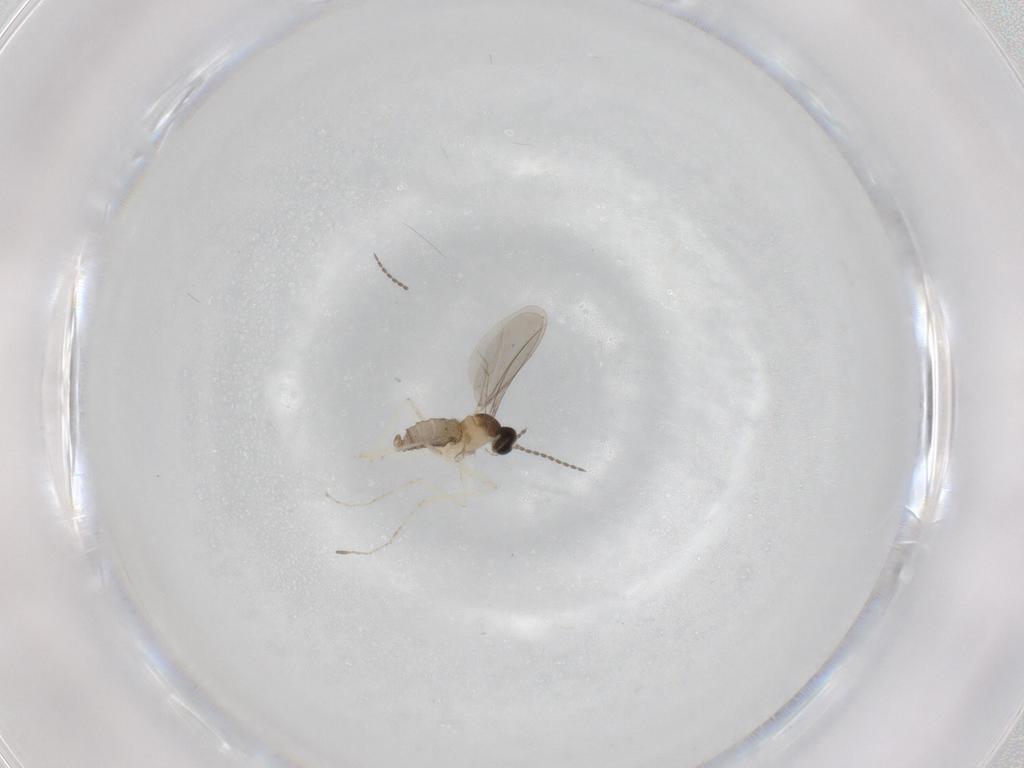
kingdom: Animalia
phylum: Arthropoda
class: Insecta
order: Diptera
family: Cecidomyiidae
